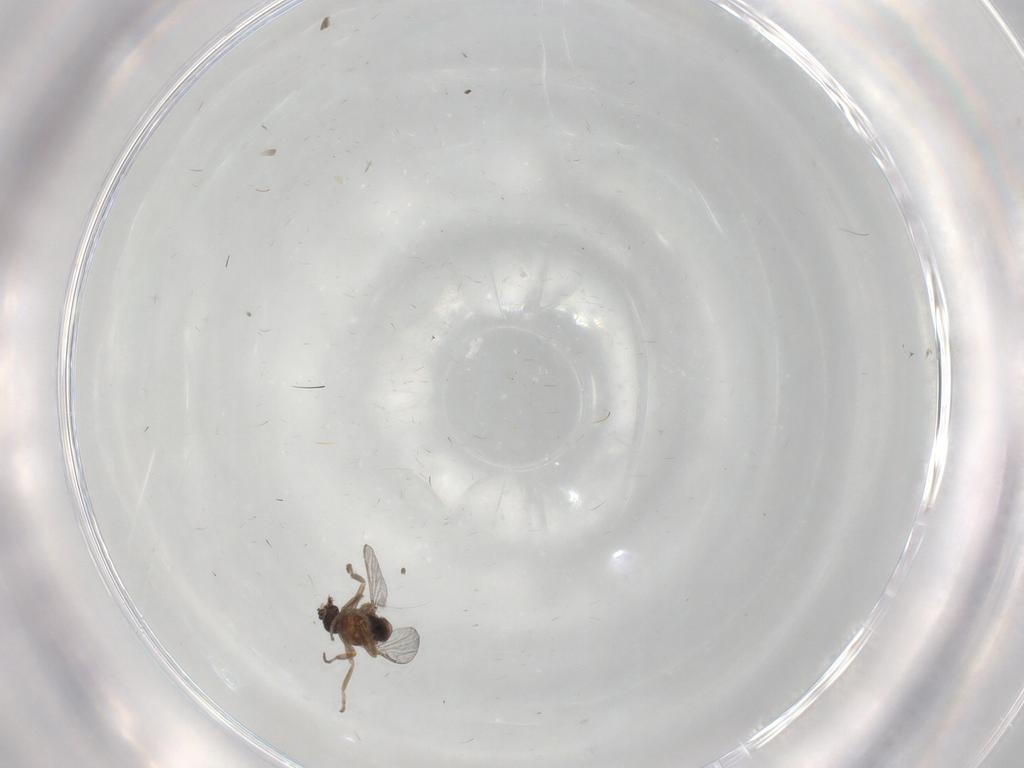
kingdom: Animalia
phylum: Arthropoda
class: Insecta
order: Diptera
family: Ceratopogonidae
